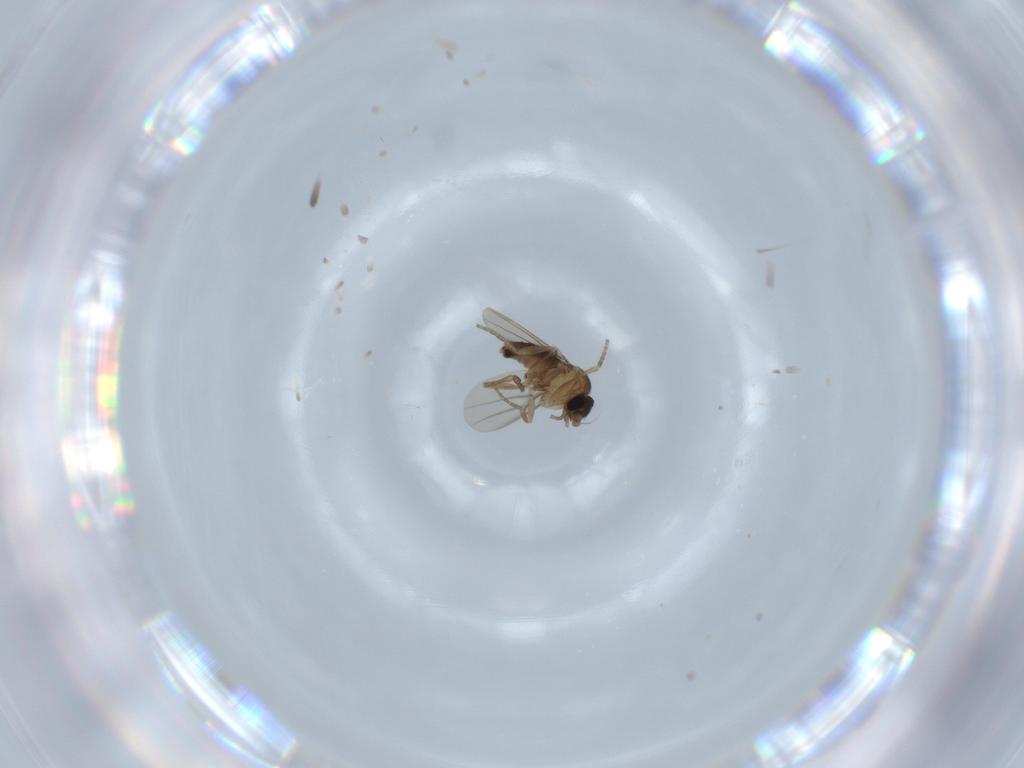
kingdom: Animalia
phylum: Arthropoda
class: Insecta
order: Diptera
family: Phoridae
